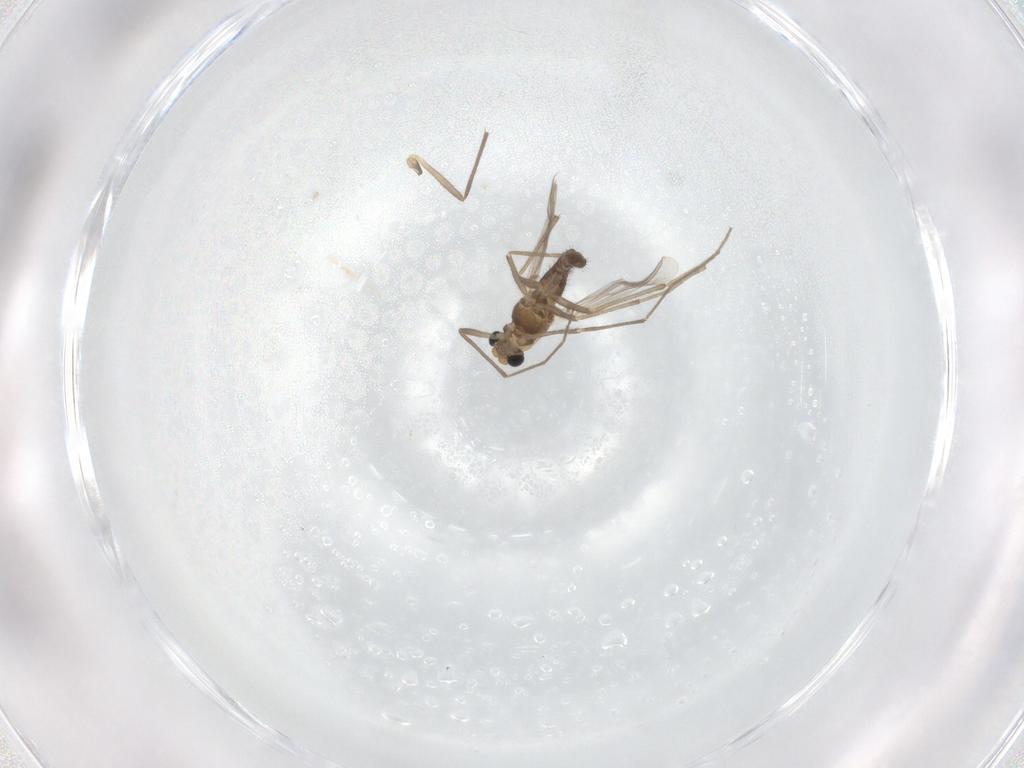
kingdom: Animalia
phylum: Arthropoda
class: Insecta
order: Diptera
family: Chironomidae
